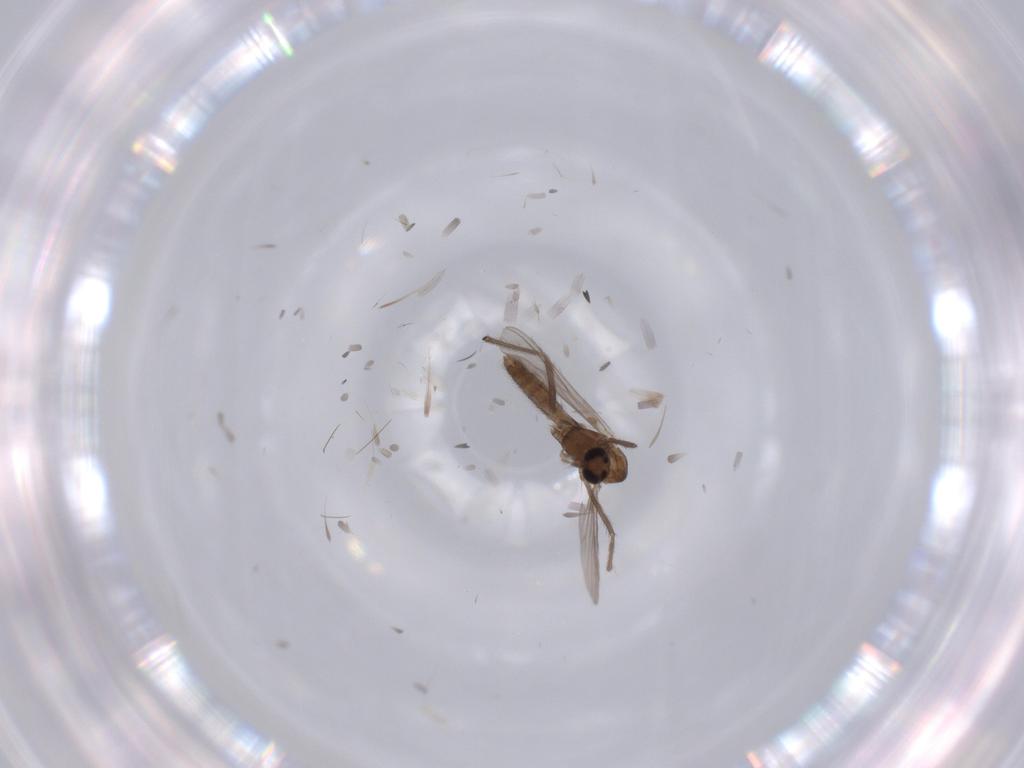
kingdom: Animalia
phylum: Arthropoda
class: Insecta
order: Diptera
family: Chironomidae
